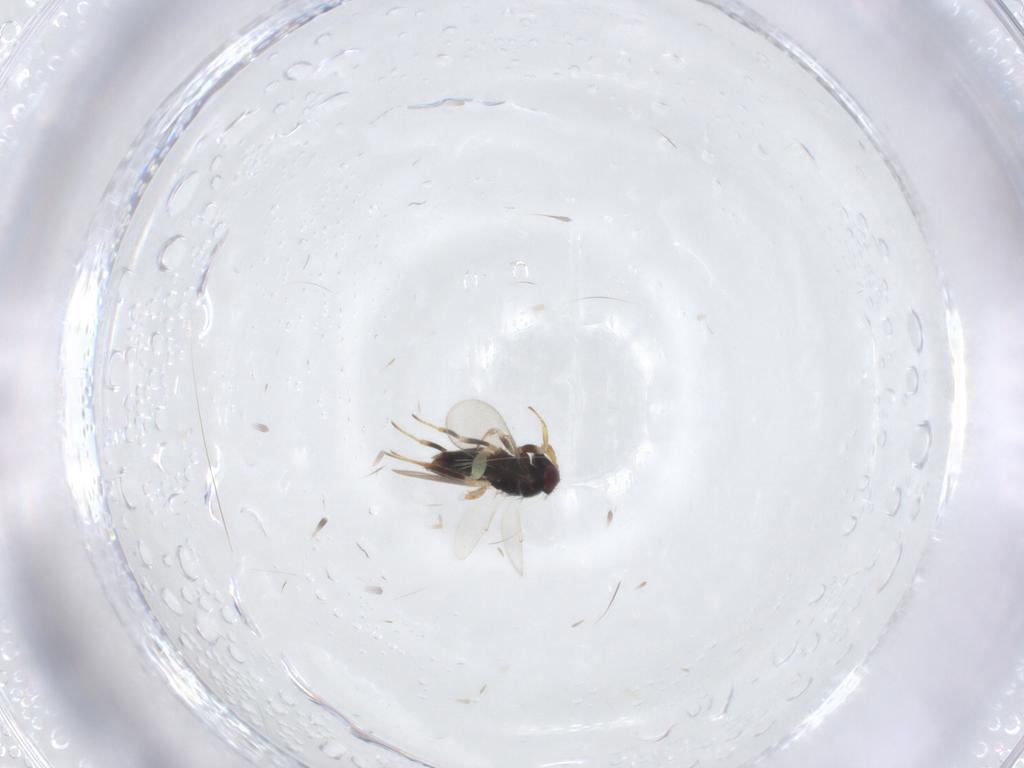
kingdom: Animalia
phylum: Arthropoda
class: Insecta
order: Hymenoptera
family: Aphelinidae
